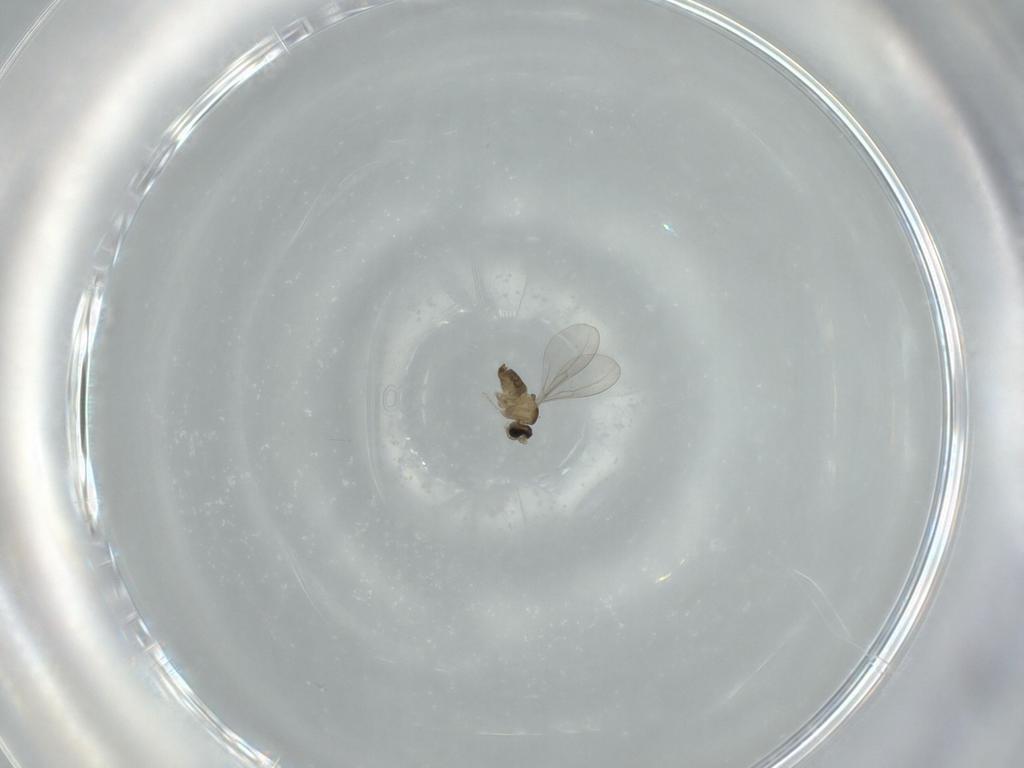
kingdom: Animalia
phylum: Arthropoda
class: Insecta
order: Diptera
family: Cecidomyiidae
